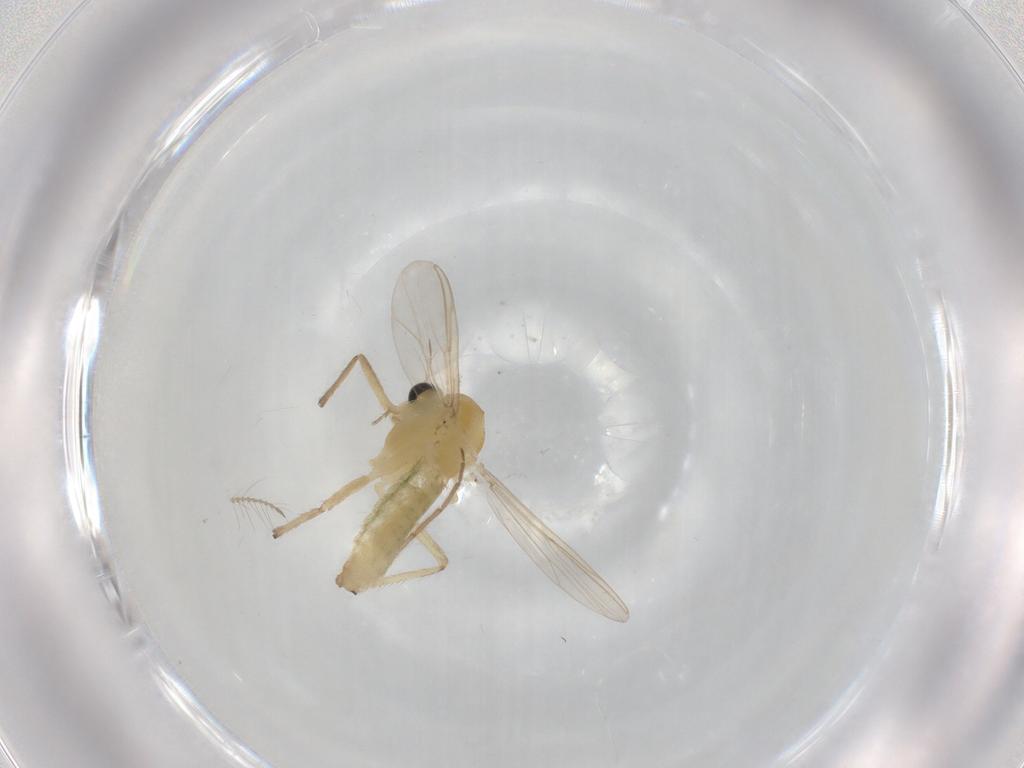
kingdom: Animalia
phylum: Arthropoda
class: Insecta
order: Diptera
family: Chironomidae
